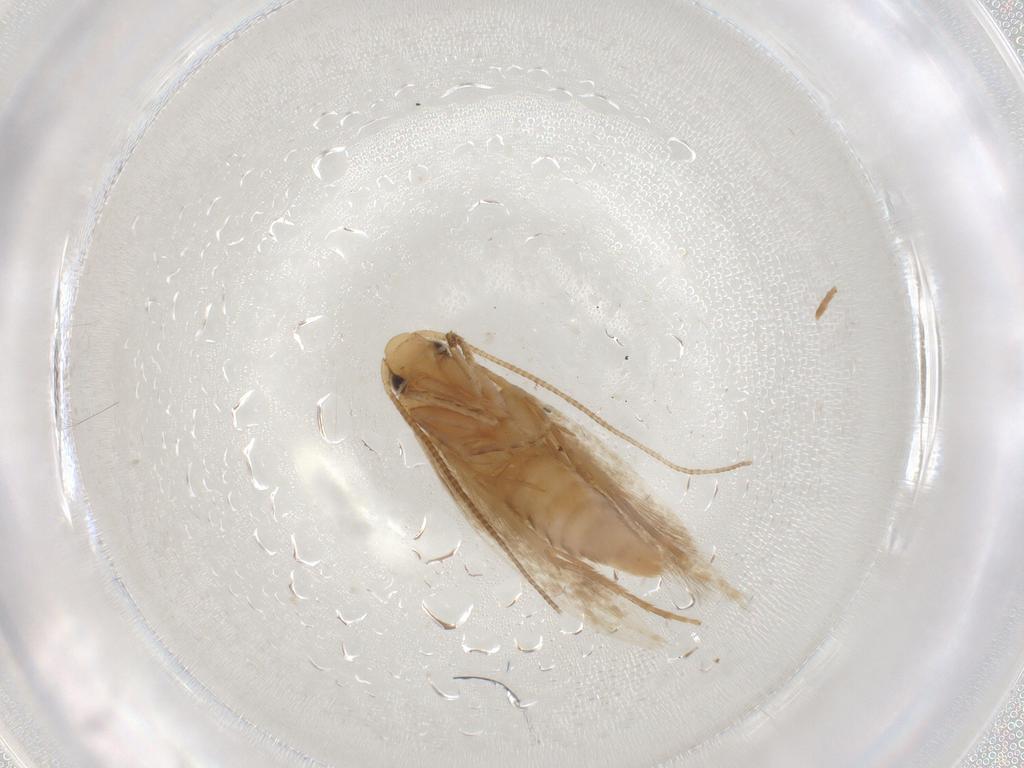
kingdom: Animalia
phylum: Arthropoda
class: Insecta
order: Lepidoptera
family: Tineidae
